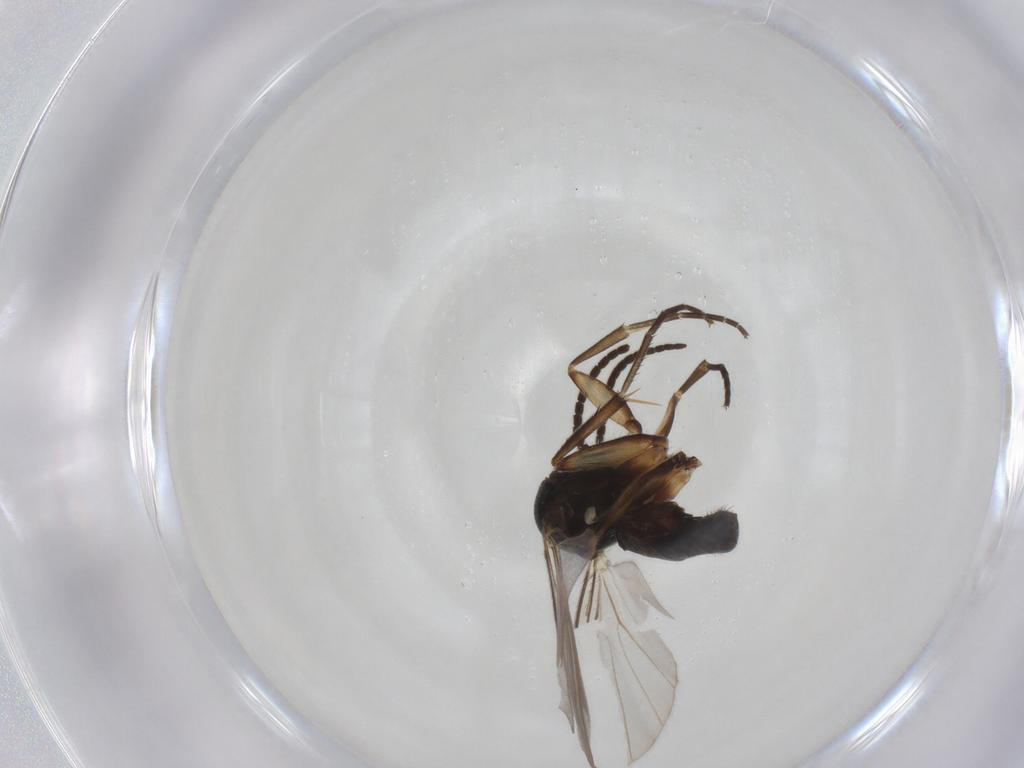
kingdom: Animalia
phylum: Arthropoda
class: Insecta
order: Diptera
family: Mycetophilidae
